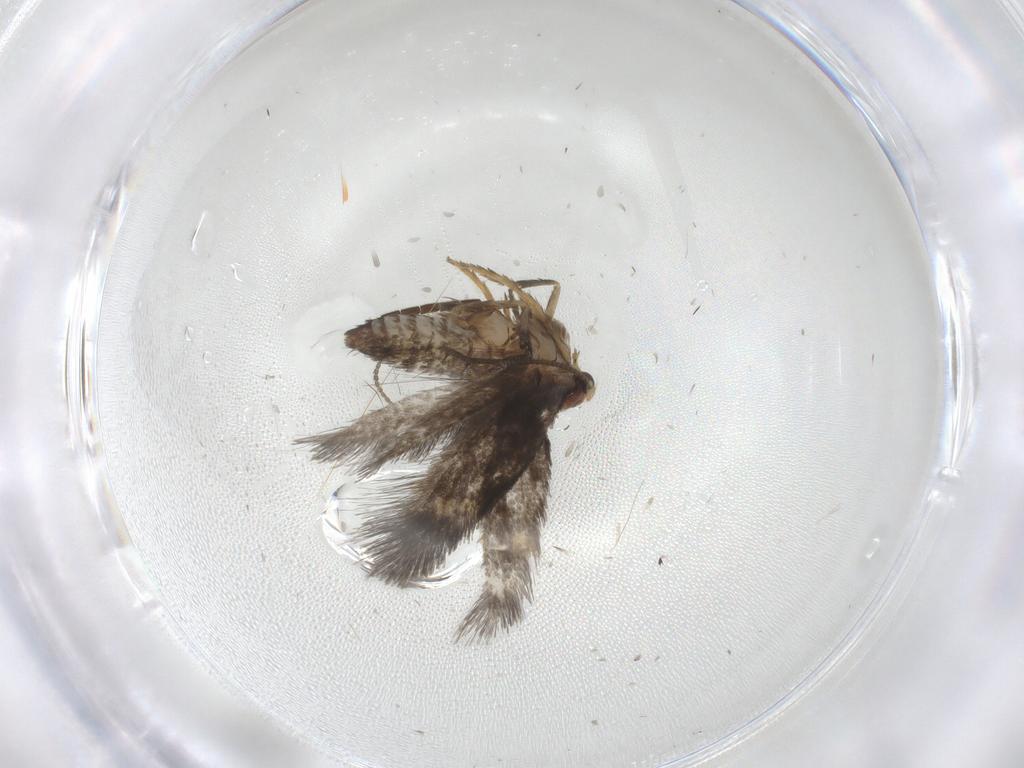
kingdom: Animalia
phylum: Arthropoda
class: Insecta
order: Lepidoptera
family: Nepticulidae
